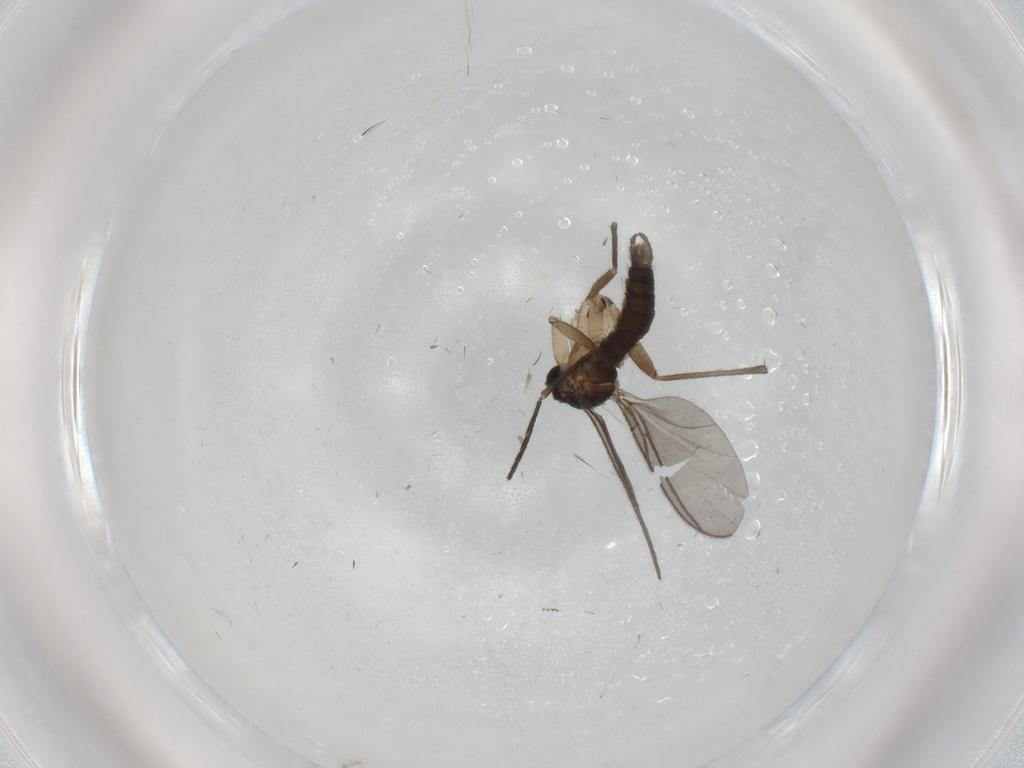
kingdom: Animalia
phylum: Arthropoda
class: Insecta
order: Diptera
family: Sciaridae
